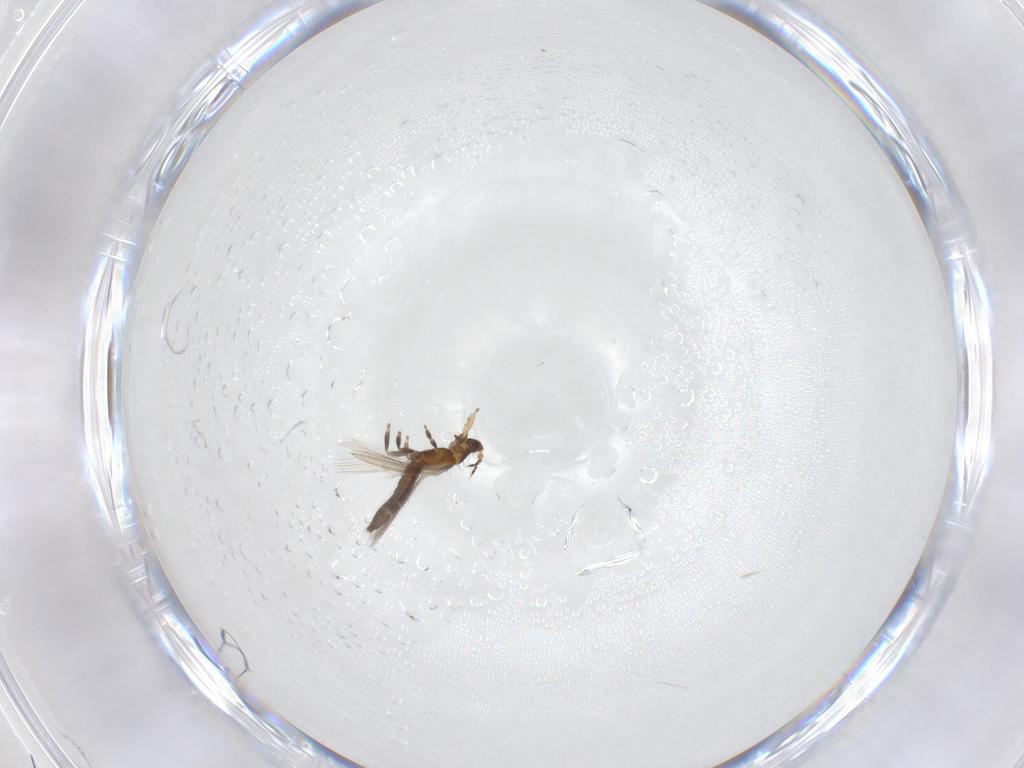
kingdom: Animalia
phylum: Arthropoda
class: Insecta
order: Thysanoptera
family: Thripidae
